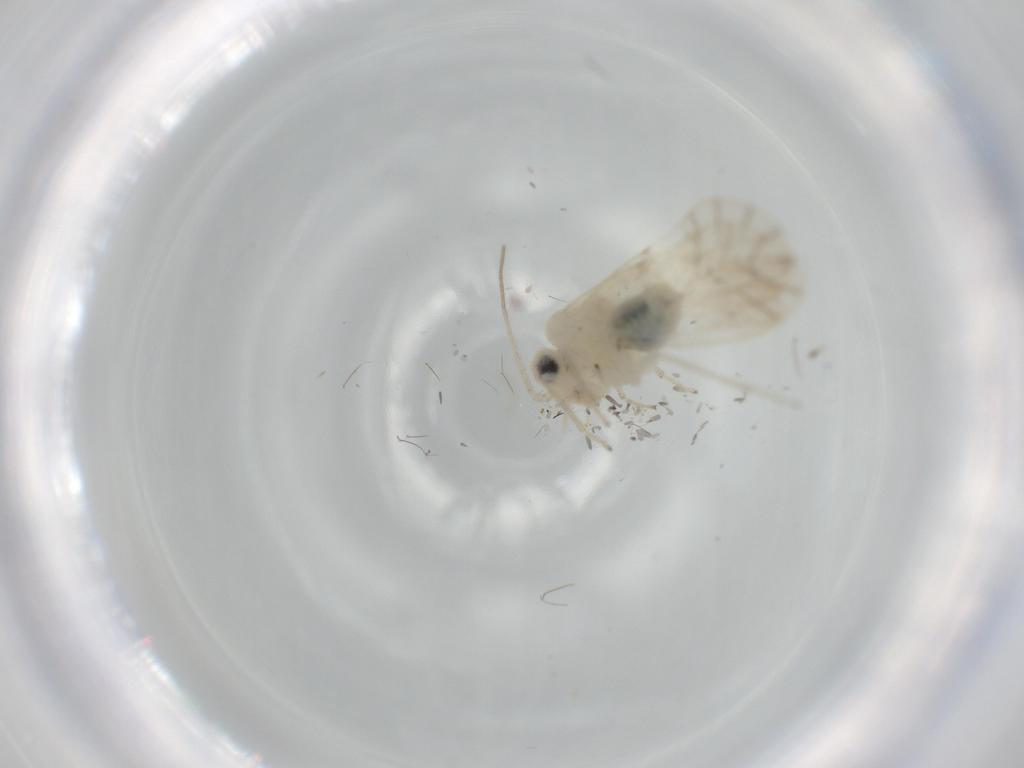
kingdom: Animalia
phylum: Arthropoda
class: Insecta
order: Psocodea
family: Caeciliusidae
